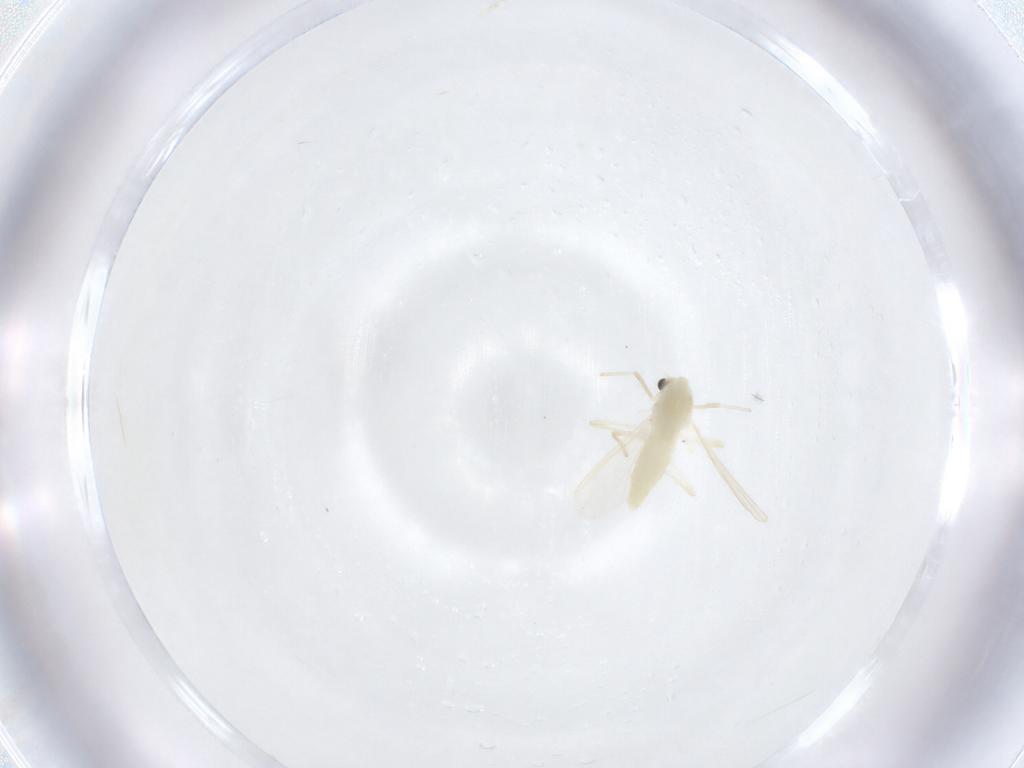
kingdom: Animalia
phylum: Arthropoda
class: Insecta
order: Diptera
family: Chironomidae
